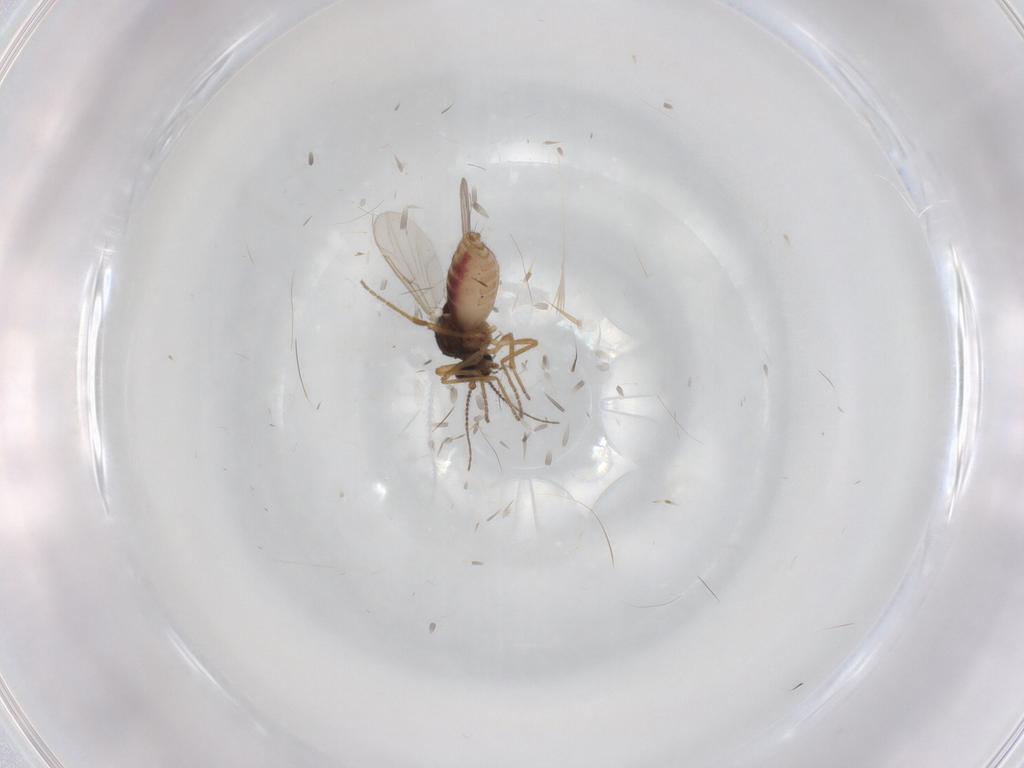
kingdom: Animalia
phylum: Arthropoda
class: Insecta
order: Diptera
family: Ceratopogonidae
